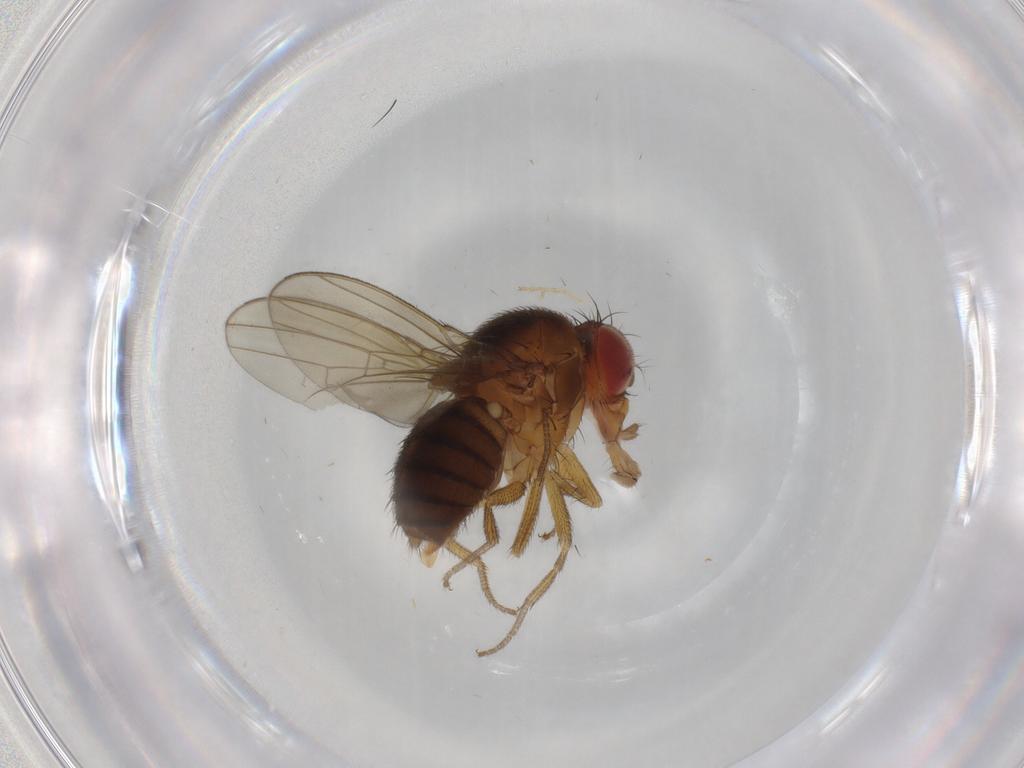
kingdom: Animalia
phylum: Arthropoda
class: Insecta
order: Diptera
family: Drosophilidae
